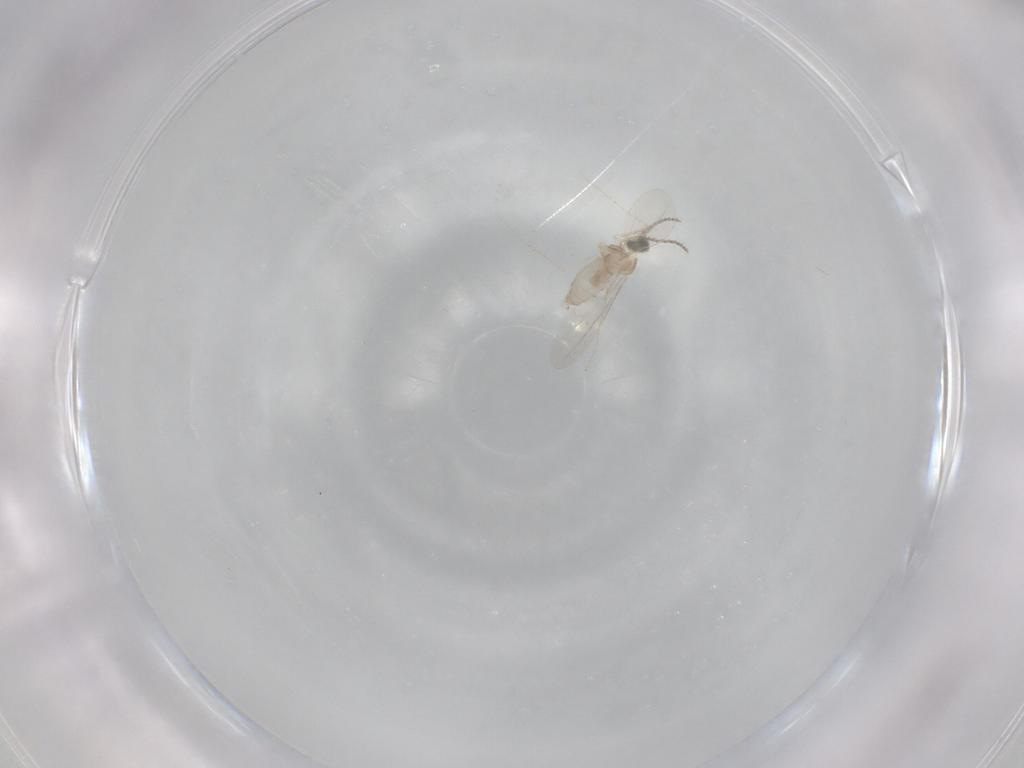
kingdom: Animalia
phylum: Arthropoda
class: Insecta
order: Diptera
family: Cecidomyiidae
